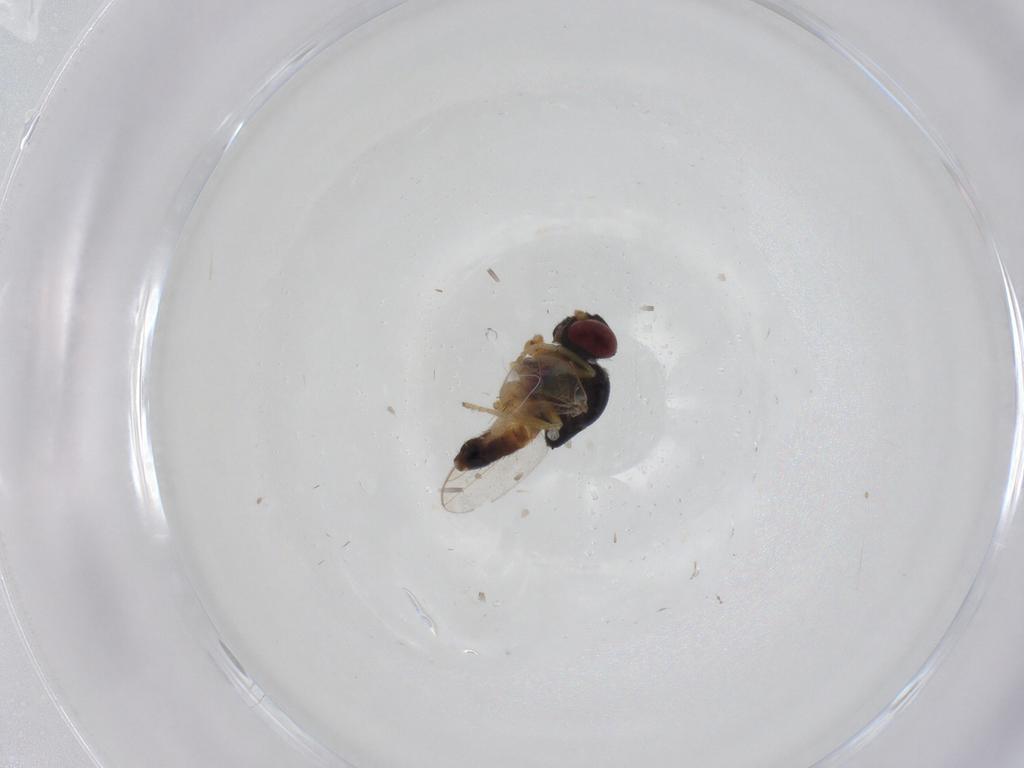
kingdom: Animalia
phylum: Arthropoda
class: Insecta
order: Diptera
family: Chloropidae
